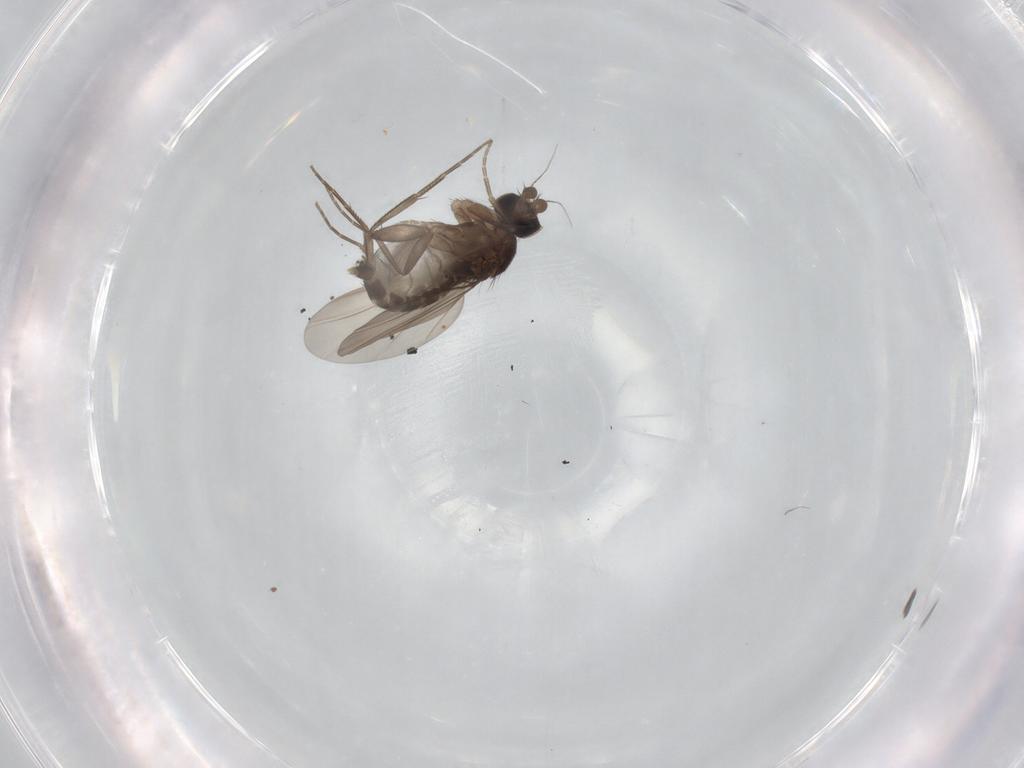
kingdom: Animalia
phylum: Arthropoda
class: Insecta
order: Diptera
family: Phoridae
